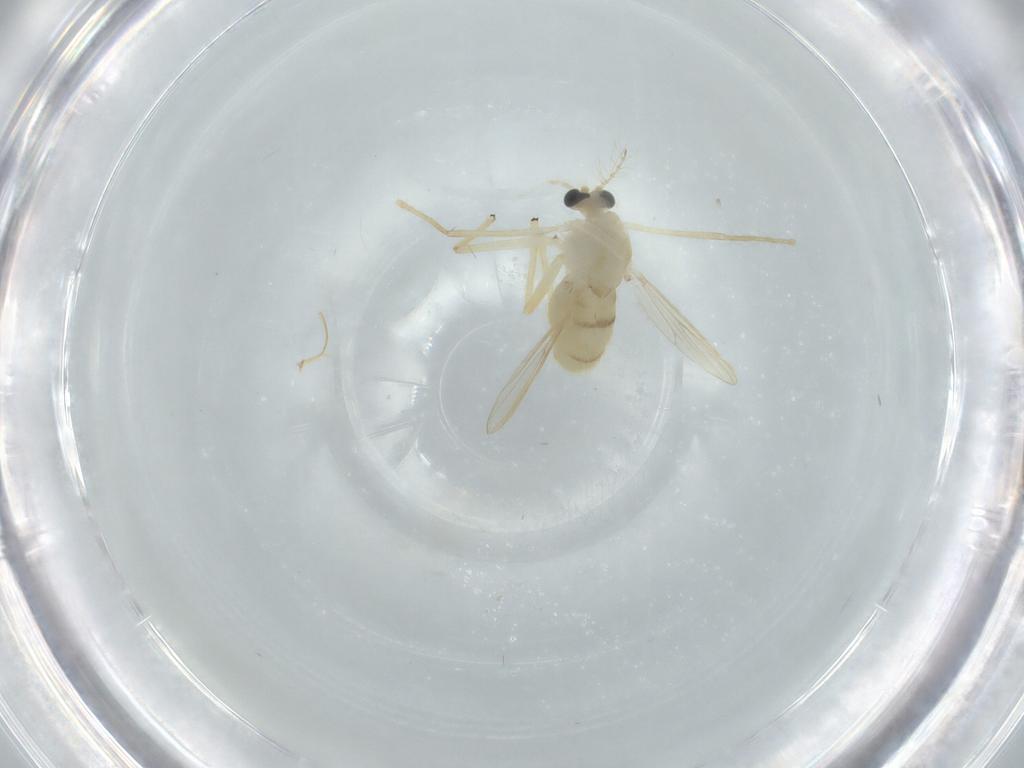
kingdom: Animalia
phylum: Arthropoda
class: Insecta
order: Diptera
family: Chironomidae
